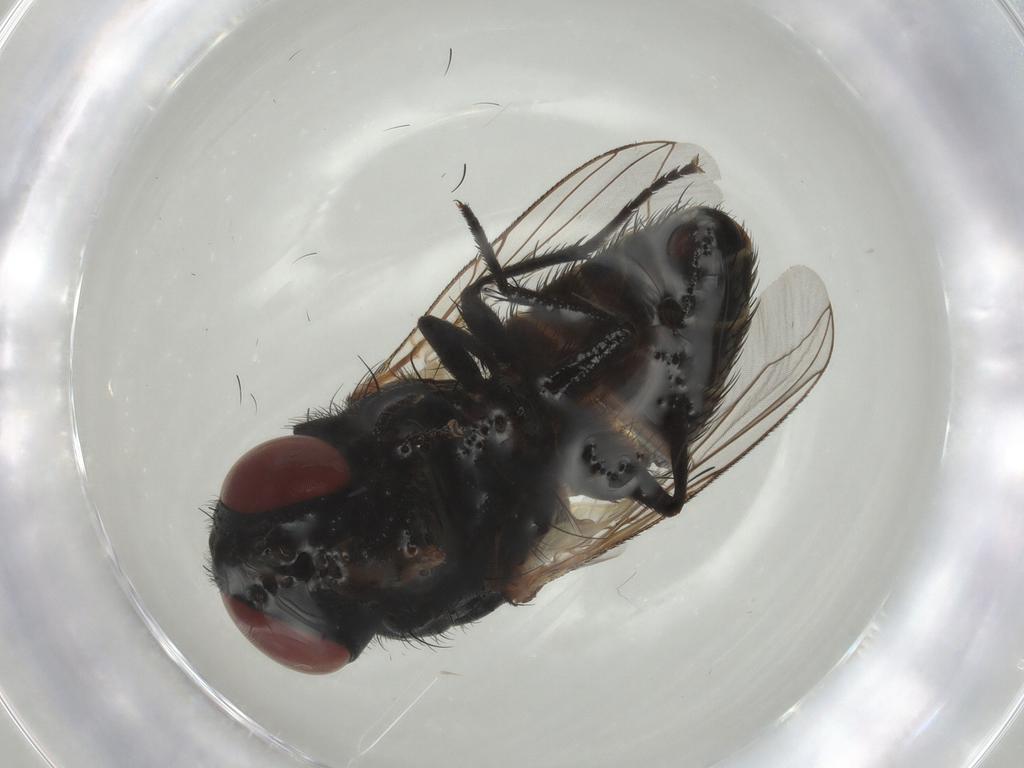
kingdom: Animalia
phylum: Arthropoda
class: Insecta
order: Diptera
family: Sarcophagidae
